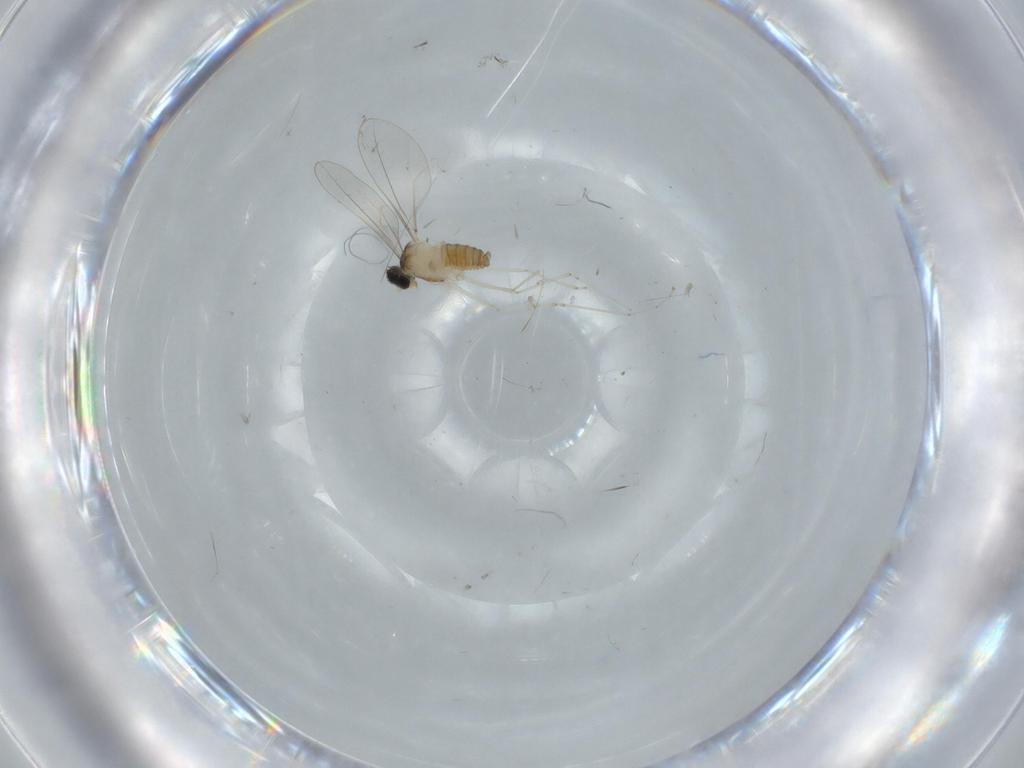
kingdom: Animalia
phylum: Arthropoda
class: Insecta
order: Diptera
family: Cecidomyiidae
